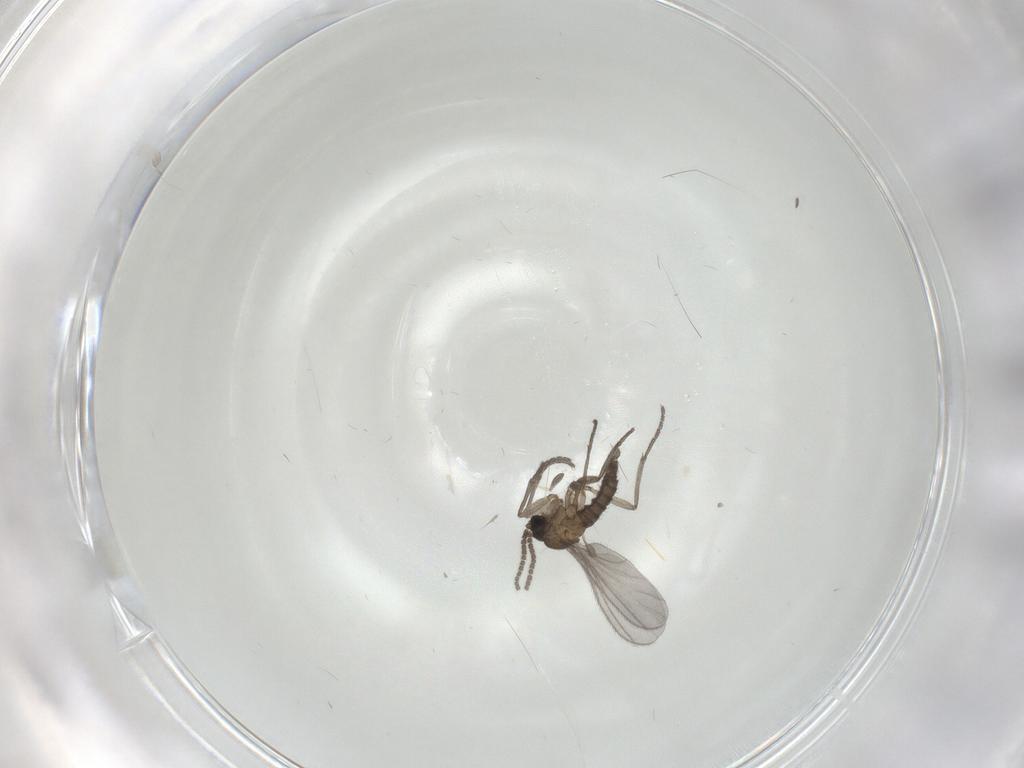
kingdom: Animalia
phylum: Arthropoda
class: Insecta
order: Diptera
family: Sciaridae
